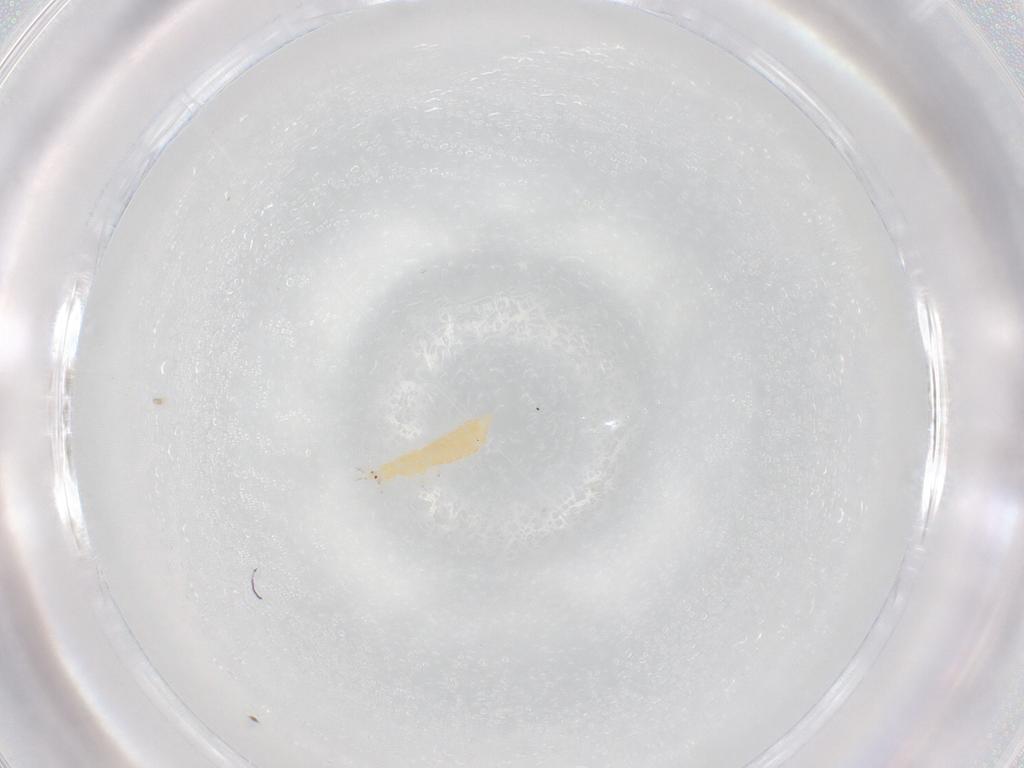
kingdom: Animalia
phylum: Arthropoda
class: Insecta
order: Thysanoptera
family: Thripidae
